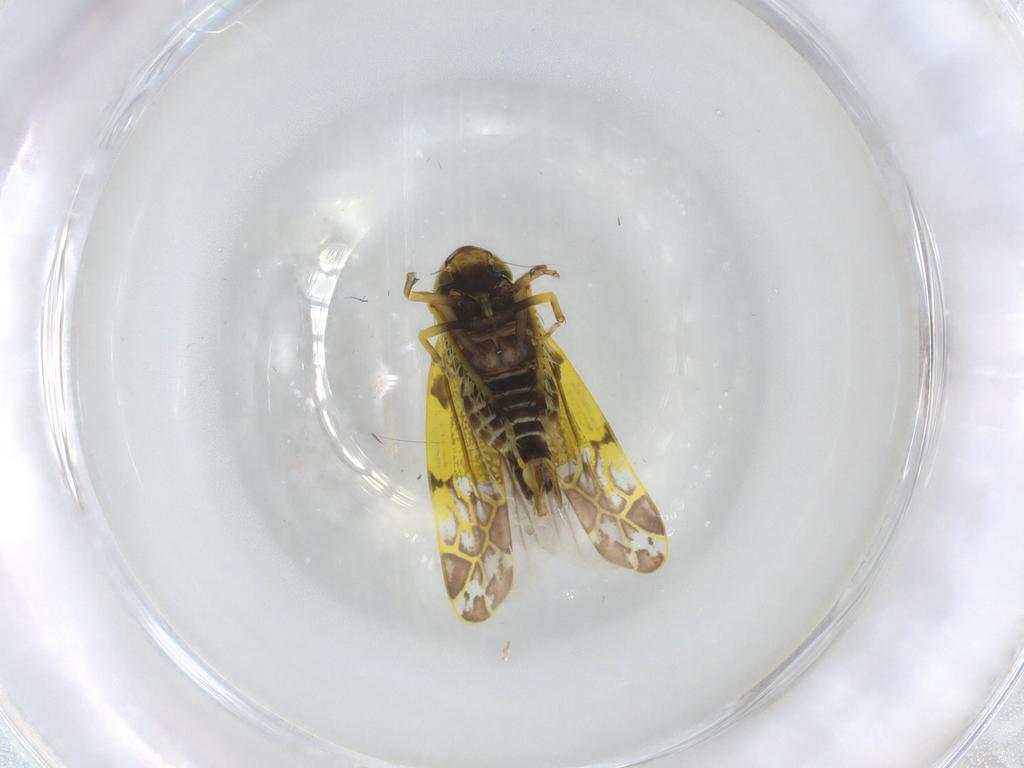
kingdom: Animalia
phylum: Arthropoda
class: Insecta
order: Hemiptera
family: Cicadellidae
